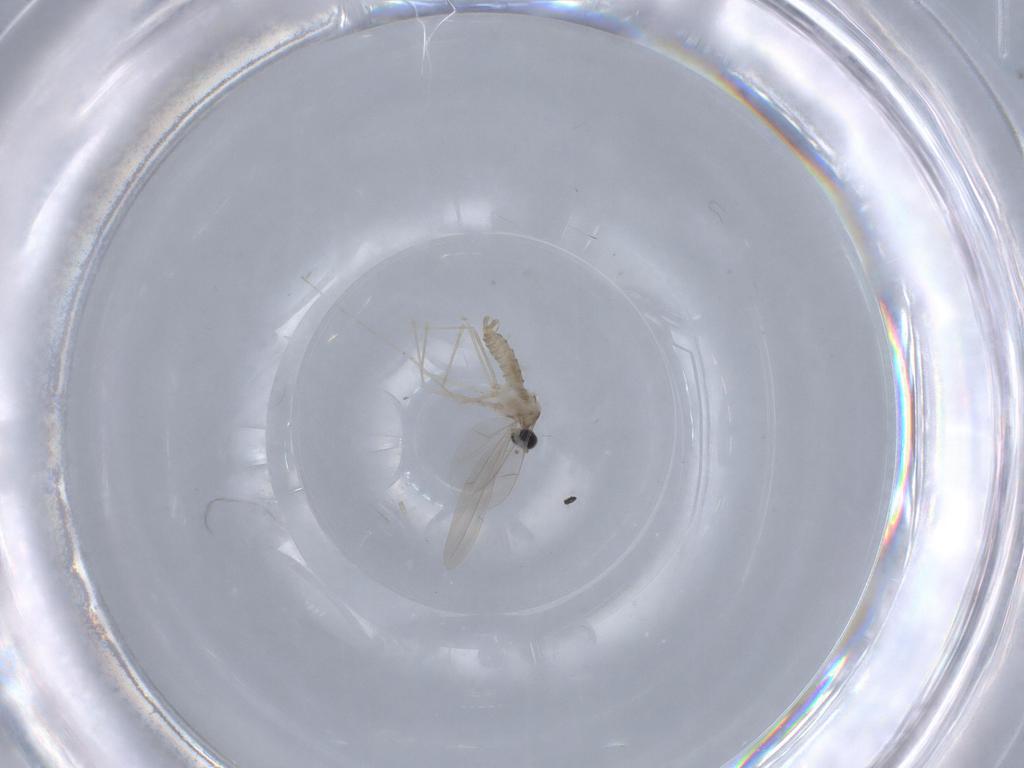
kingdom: Animalia
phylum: Arthropoda
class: Insecta
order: Diptera
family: Cecidomyiidae
